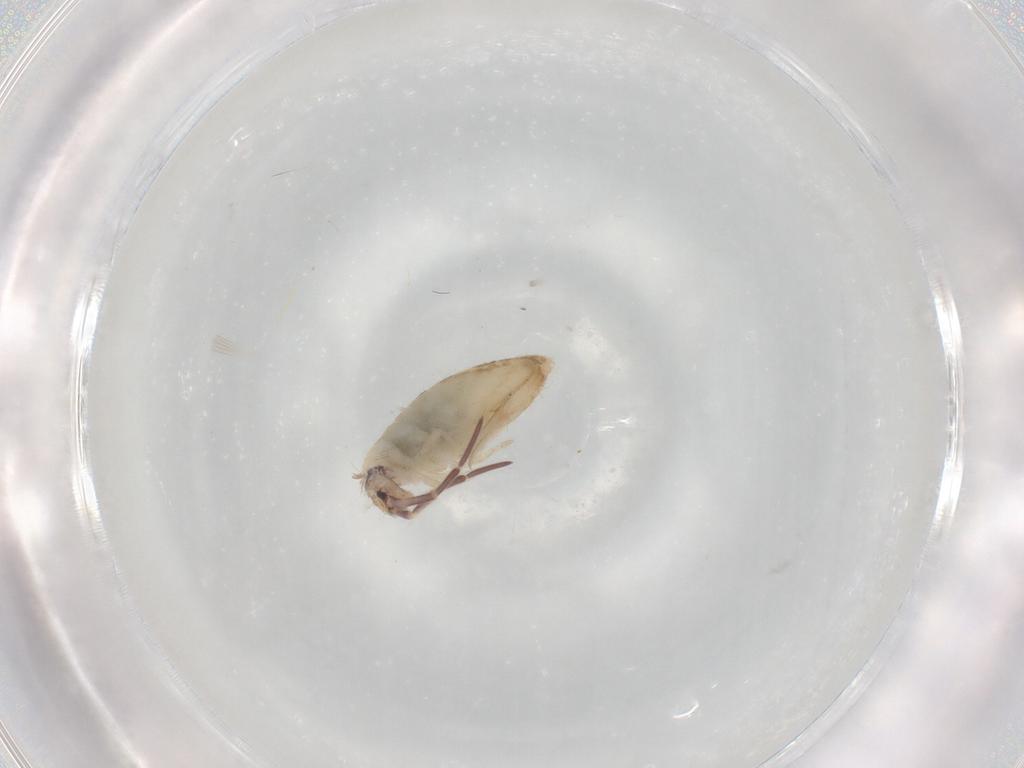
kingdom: Animalia
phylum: Arthropoda
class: Collembola
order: Entomobryomorpha
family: Entomobryidae
